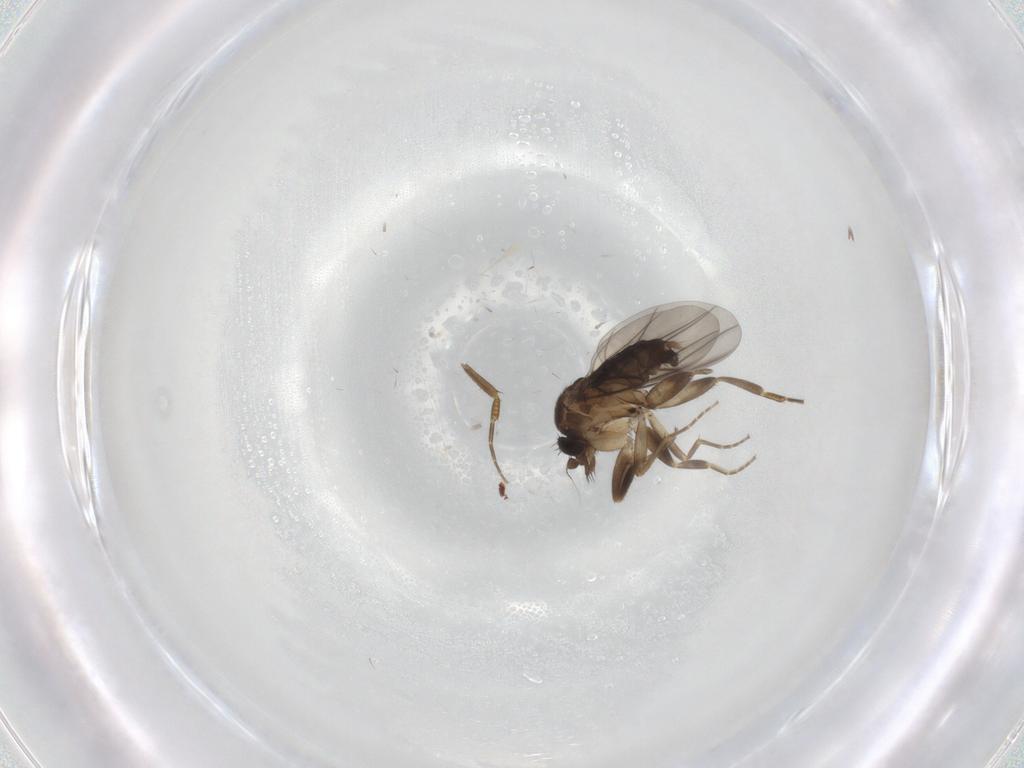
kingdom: Animalia
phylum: Arthropoda
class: Insecta
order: Diptera
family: Phoridae
